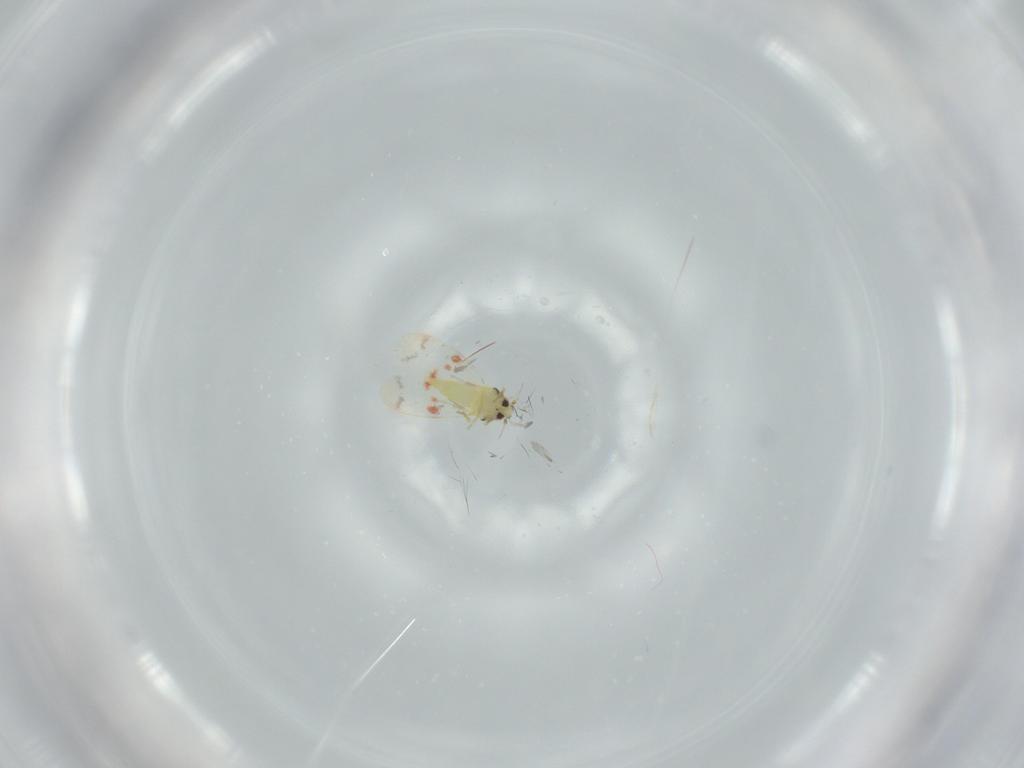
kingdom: Animalia
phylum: Arthropoda
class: Insecta
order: Hemiptera
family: Aleyrodidae
